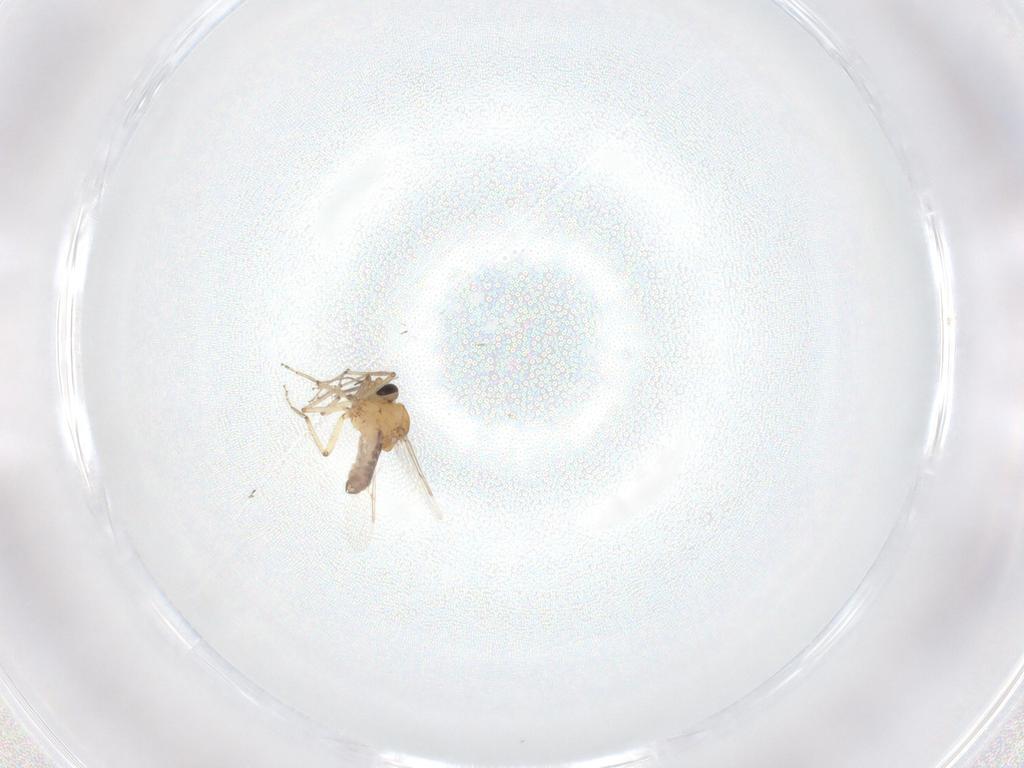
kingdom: Animalia
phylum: Arthropoda
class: Insecta
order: Diptera
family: Ceratopogonidae
